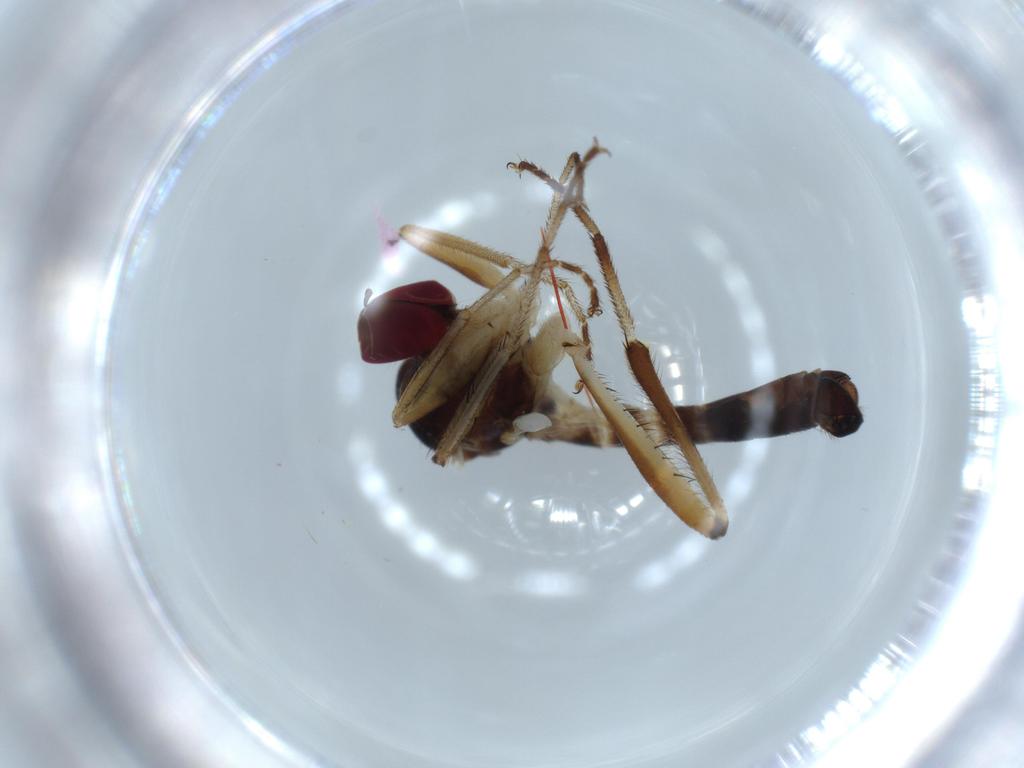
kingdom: Animalia
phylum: Arthropoda
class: Insecta
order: Diptera
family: Hybotidae
